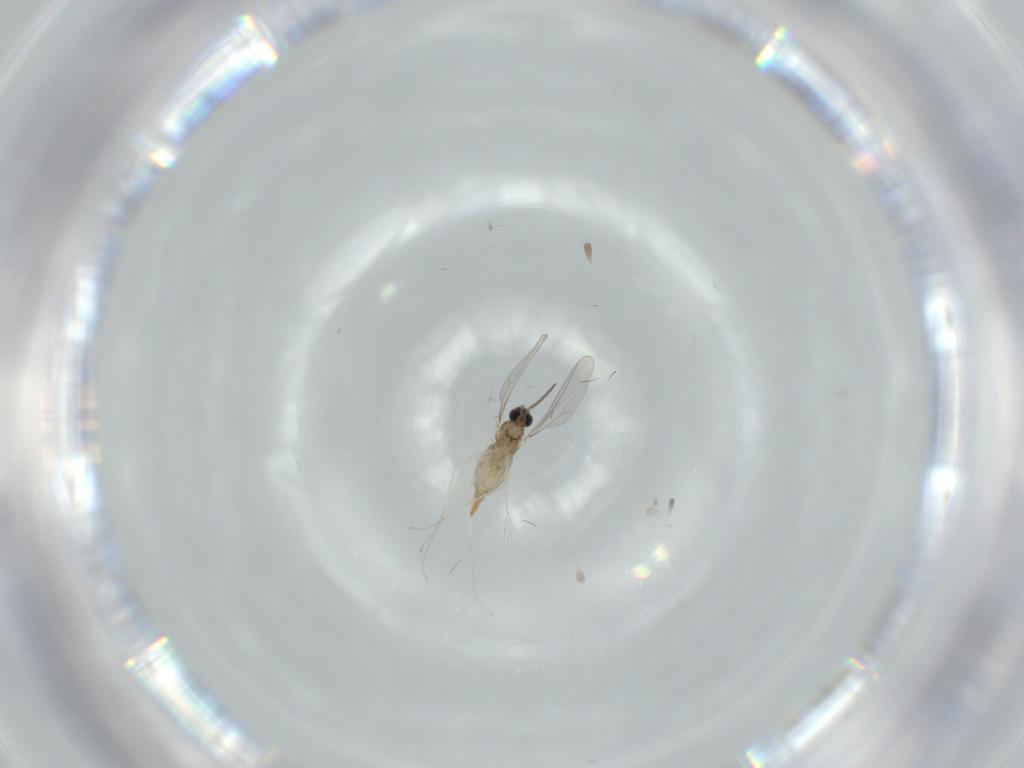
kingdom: Animalia
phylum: Arthropoda
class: Insecta
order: Diptera
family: Cecidomyiidae
